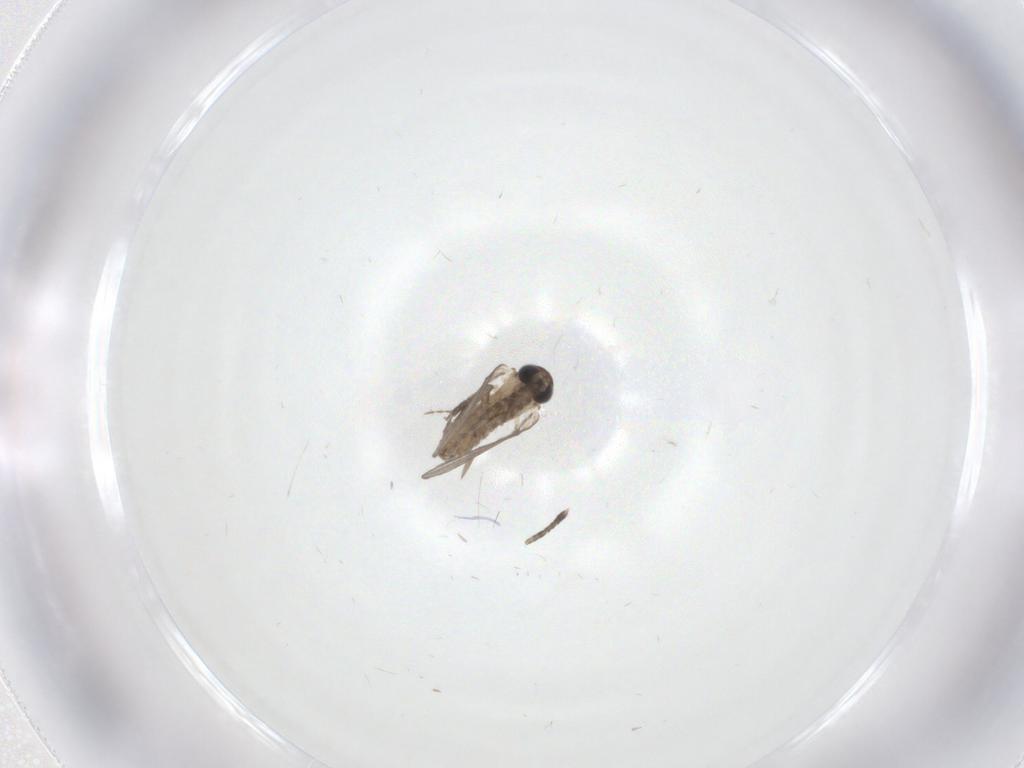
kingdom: Animalia
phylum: Arthropoda
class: Insecta
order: Diptera
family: Ceratopogonidae
